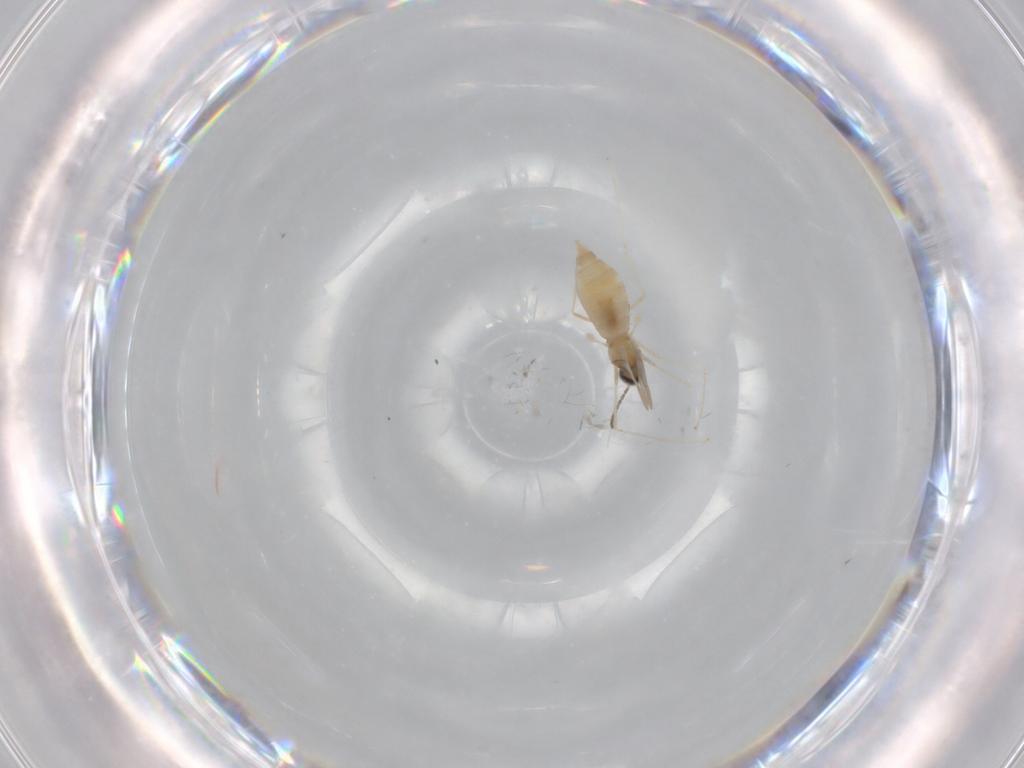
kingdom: Animalia
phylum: Arthropoda
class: Insecta
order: Diptera
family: Cecidomyiidae
